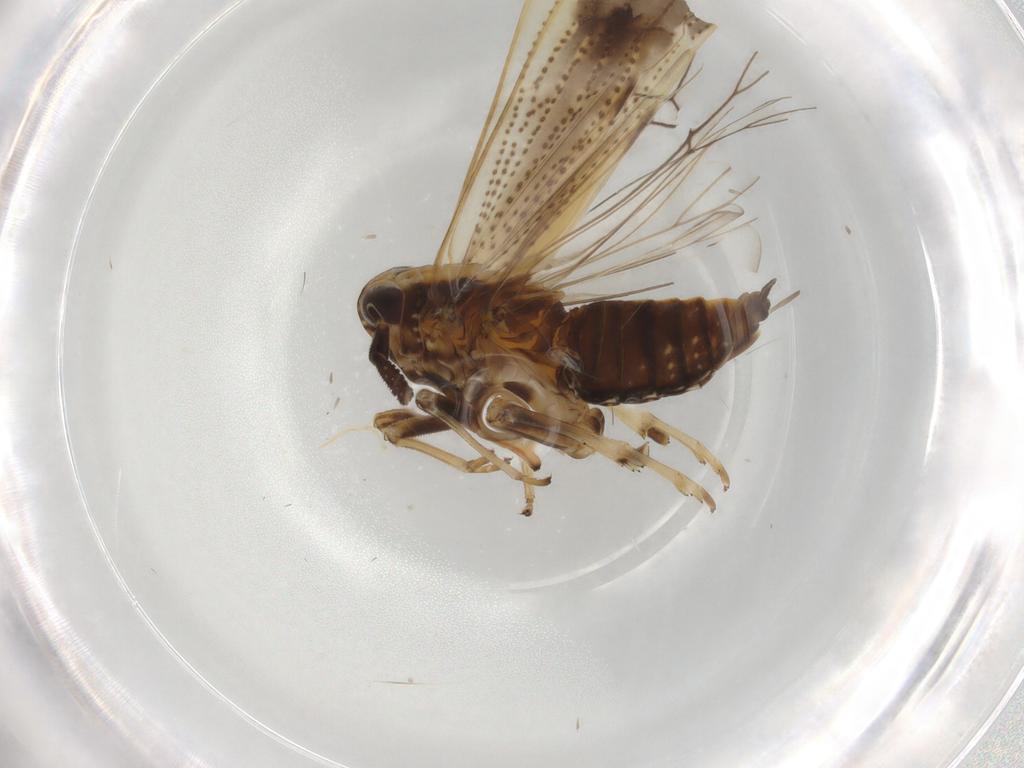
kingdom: Animalia
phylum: Arthropoda
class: Insecta
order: Hemiptera
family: Delphacidae
